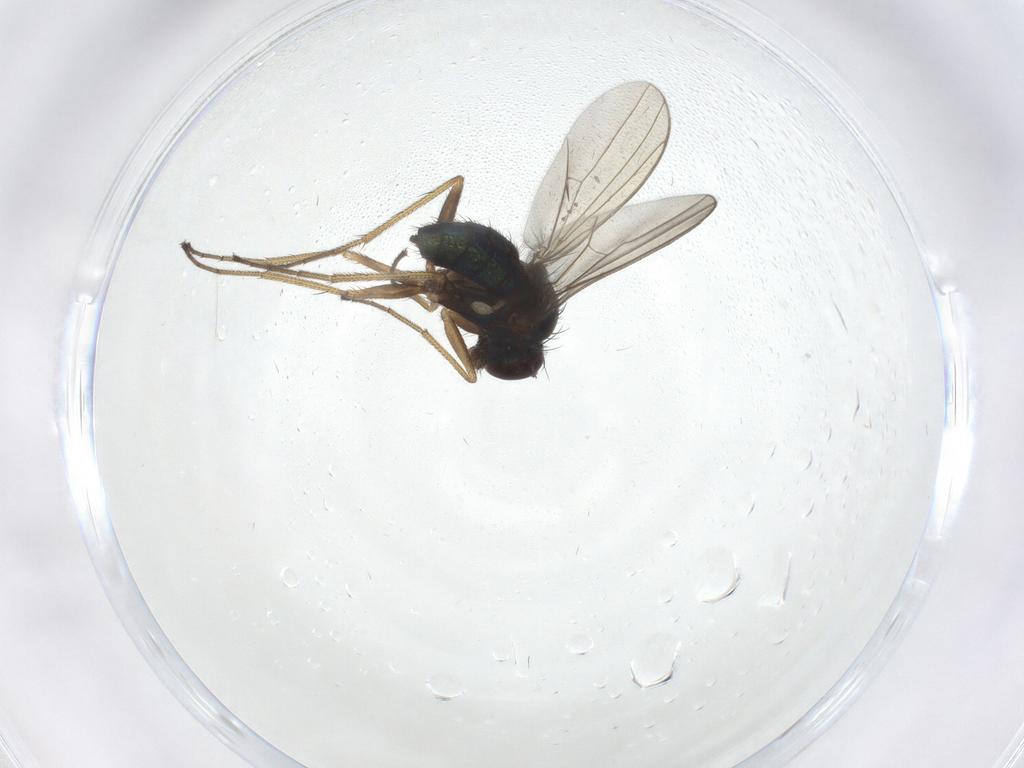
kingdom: Animalia
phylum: Arthropoda
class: Insecta
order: Diptera
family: Dolichopodidae
